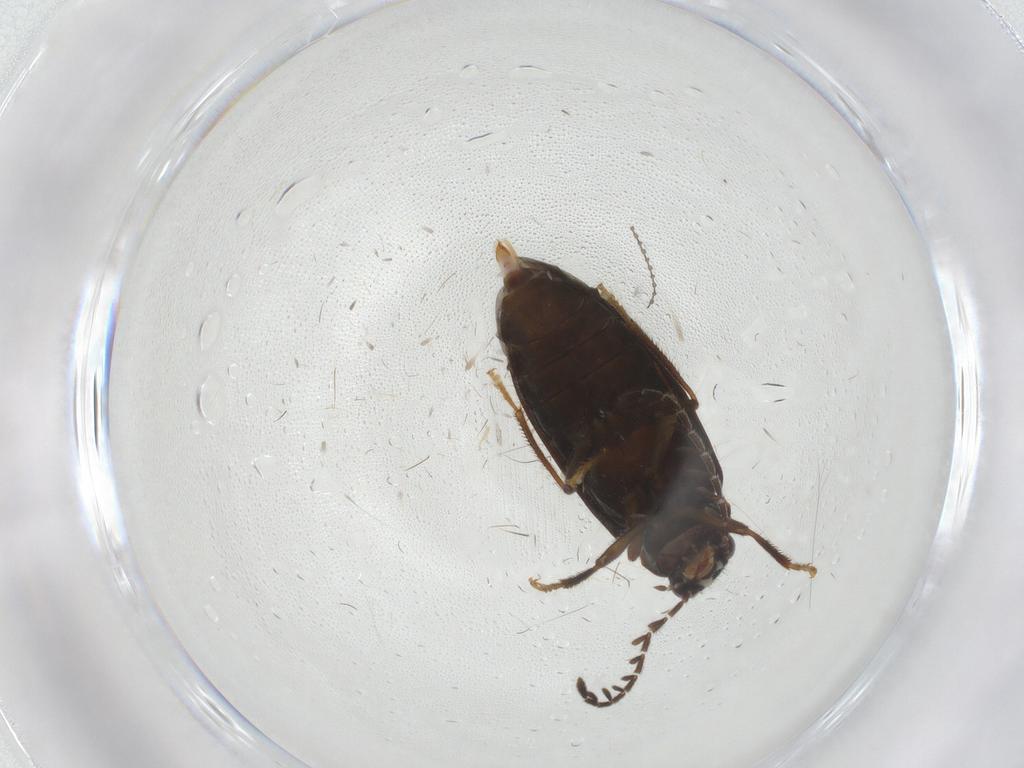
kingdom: Animalia
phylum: Arthropoda
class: Insecta
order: Coleoptera
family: Ptilodactylidae
